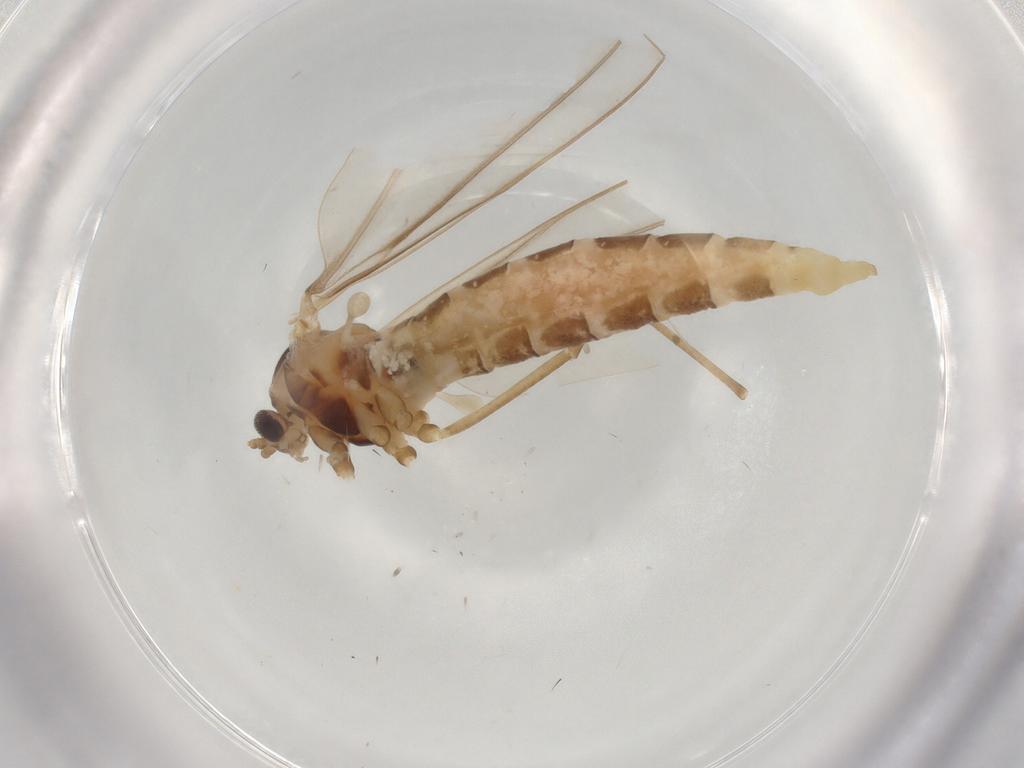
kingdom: Animalia
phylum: Arthropoda
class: Insecta
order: Diptera
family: Cecidomyiidae
